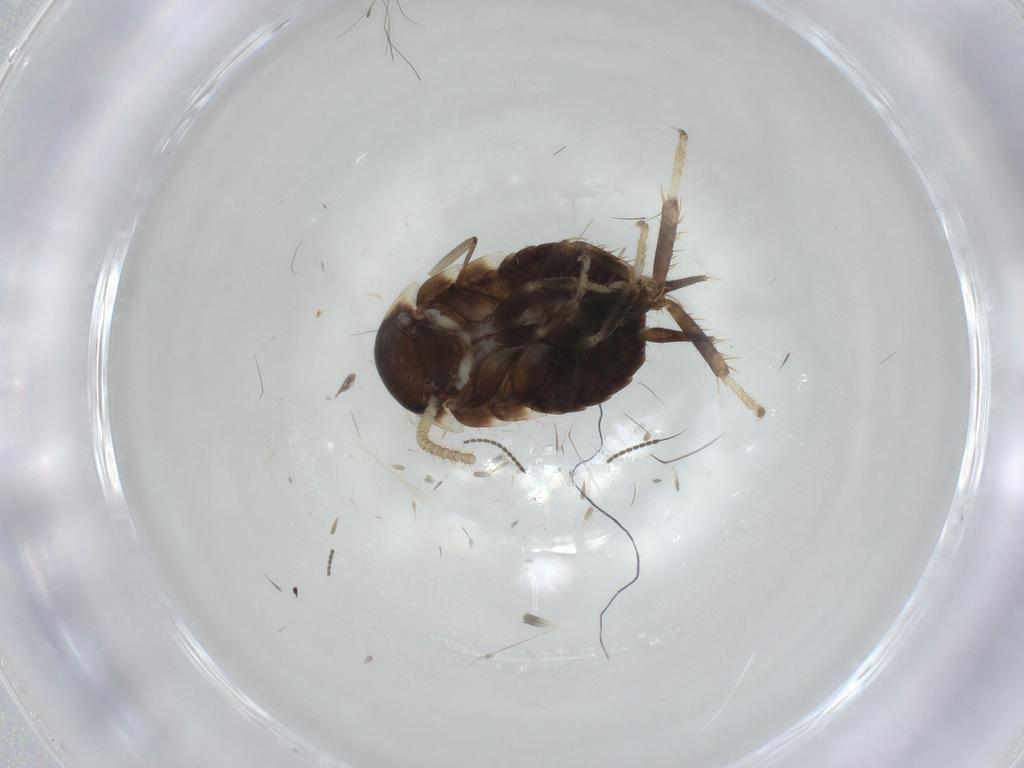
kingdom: Animalia
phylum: Arthropoda
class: Insecta
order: Blattodea
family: Blaberidae
